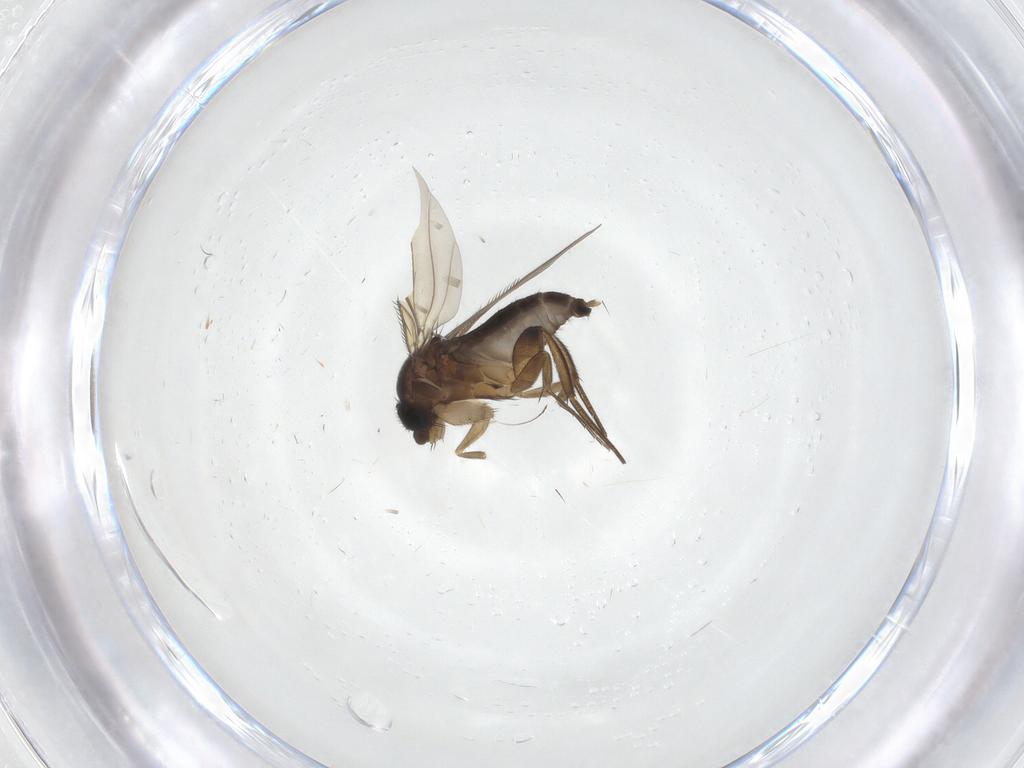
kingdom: Animalia
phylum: Arthropoda
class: Insecta
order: Diptera
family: Phoridae
